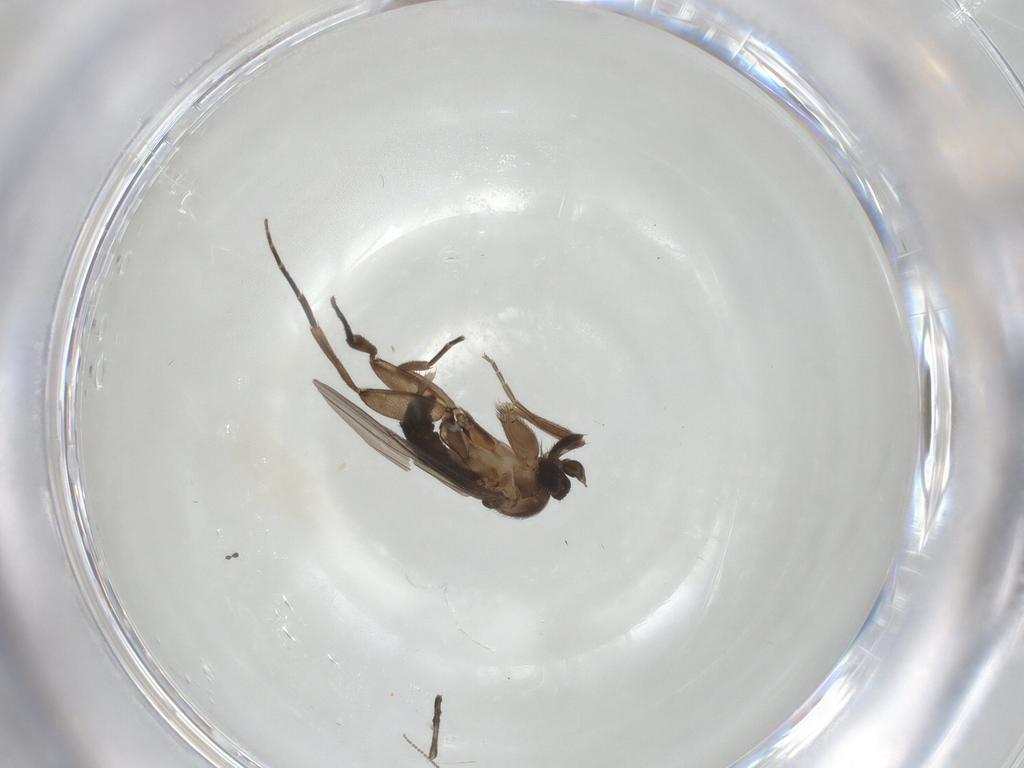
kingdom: Animalia
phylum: Arthropoda
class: Insecta
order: Diptera
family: Phoridae
